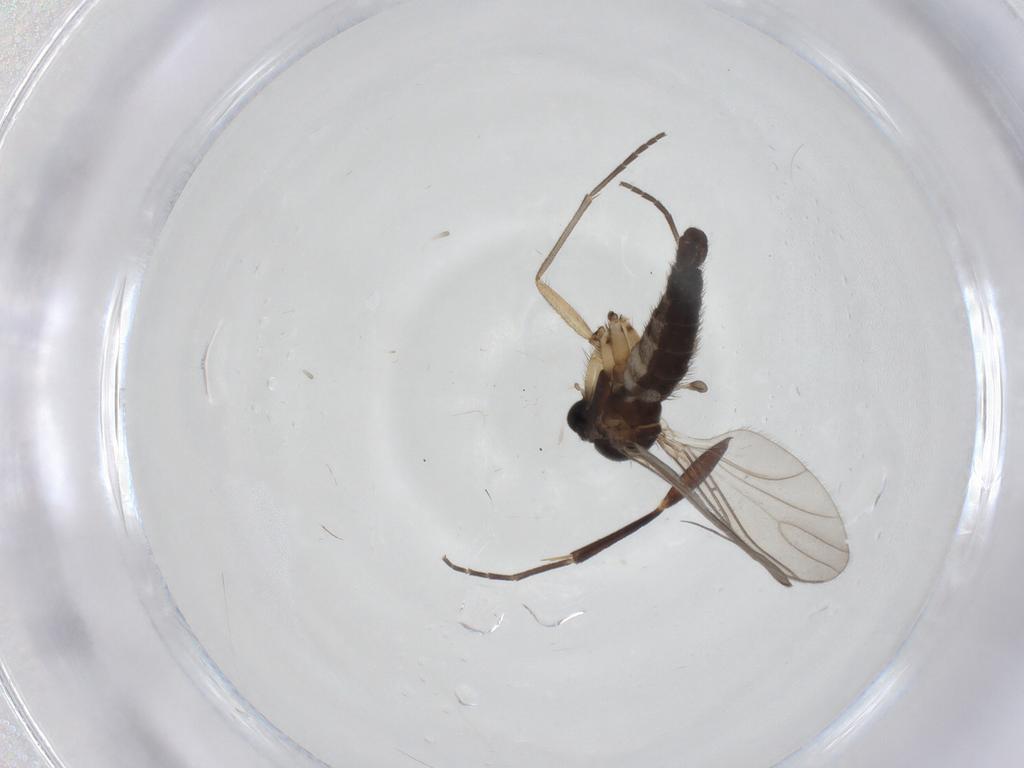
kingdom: Animalia
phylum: Arthropoda
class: Insecta
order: Diptera
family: Sciaridae
